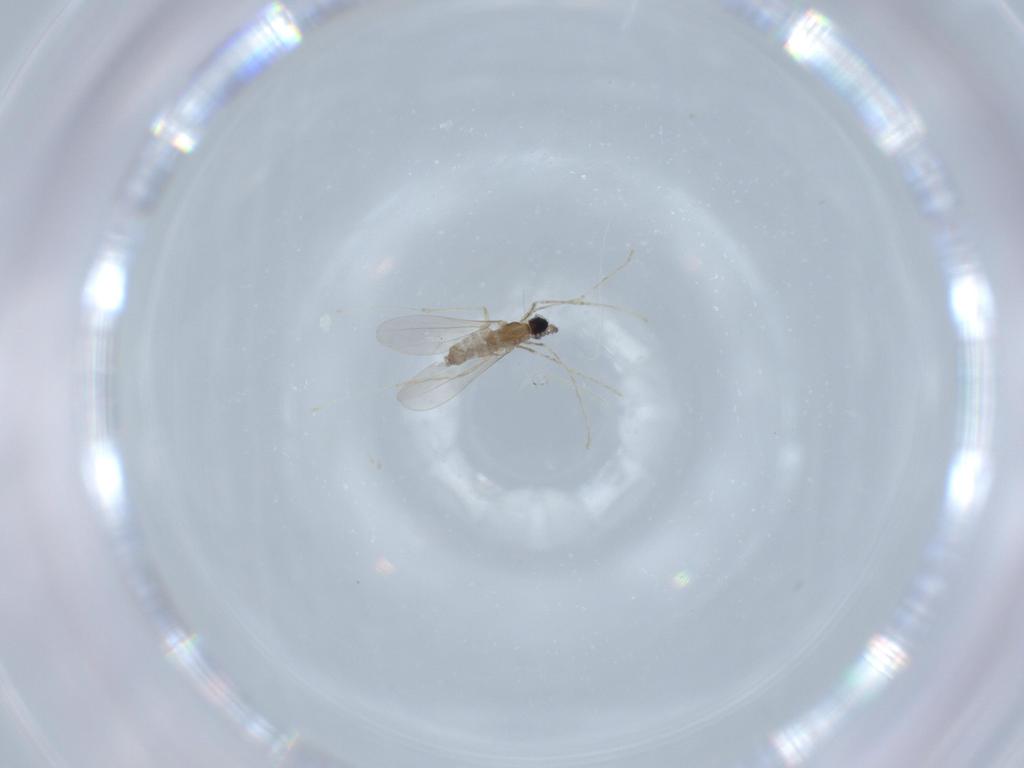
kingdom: Animalia
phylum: Arthropoda
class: Insecta
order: Diptera
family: Cecidomyiidae
